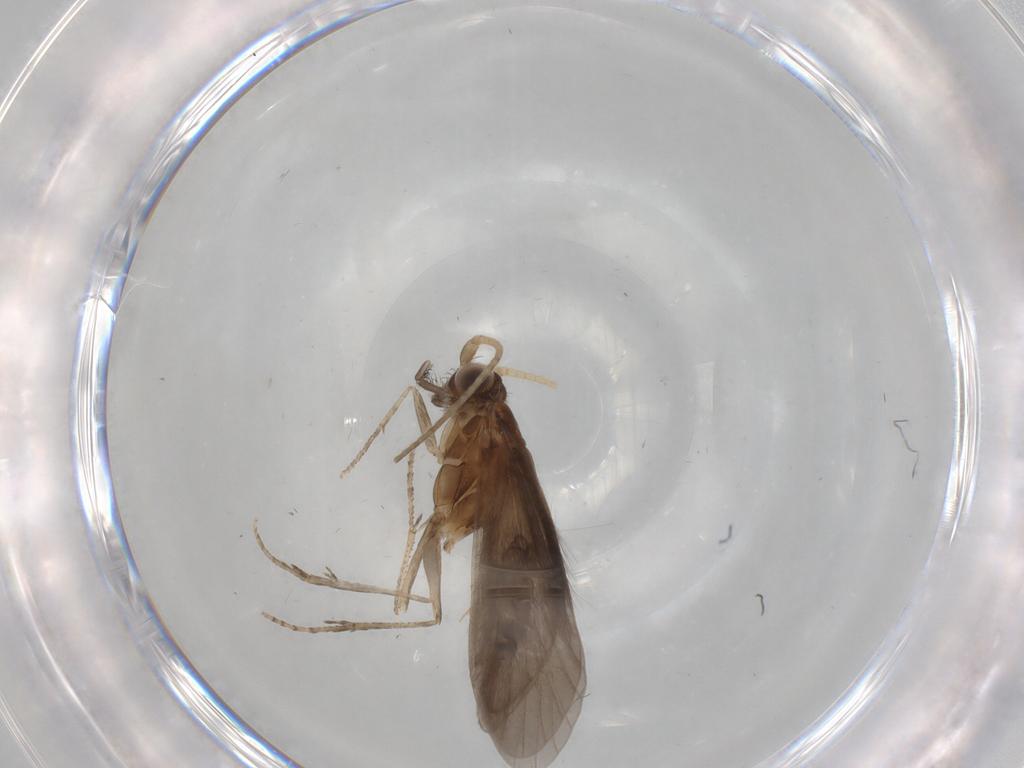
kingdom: Animalia
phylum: Arthropoda
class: Insecta
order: Trichoptera
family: Helicopsychidae
